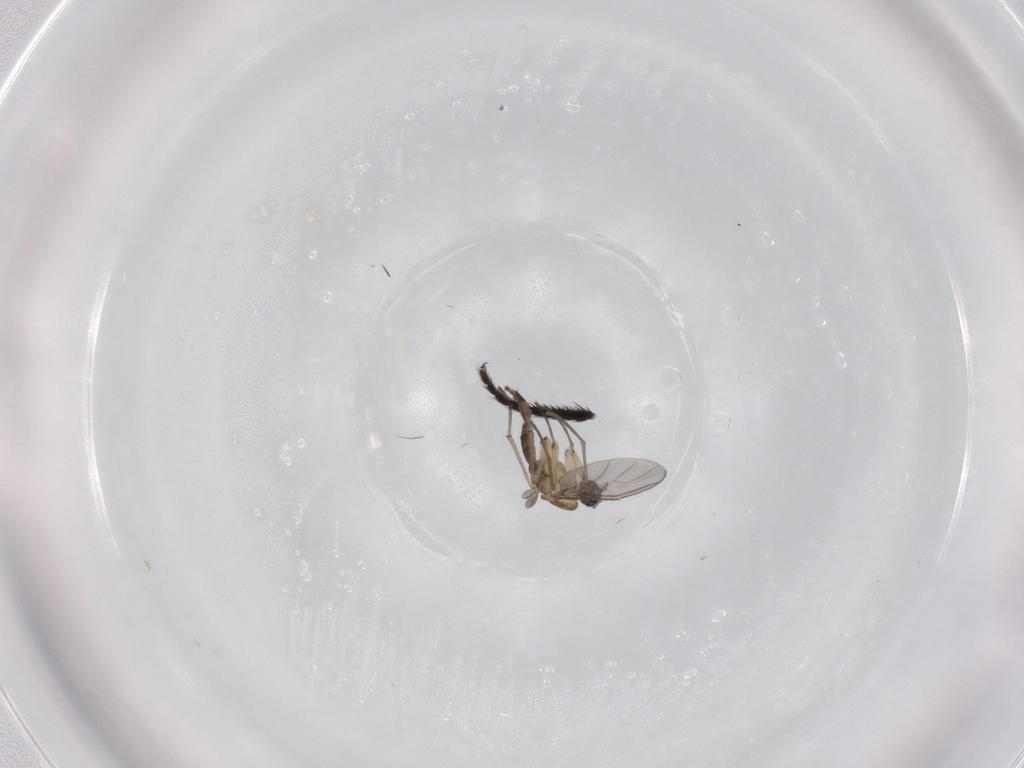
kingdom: Animalia
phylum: Arthropoda
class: Insecta
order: Diptera
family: Sciaridae
